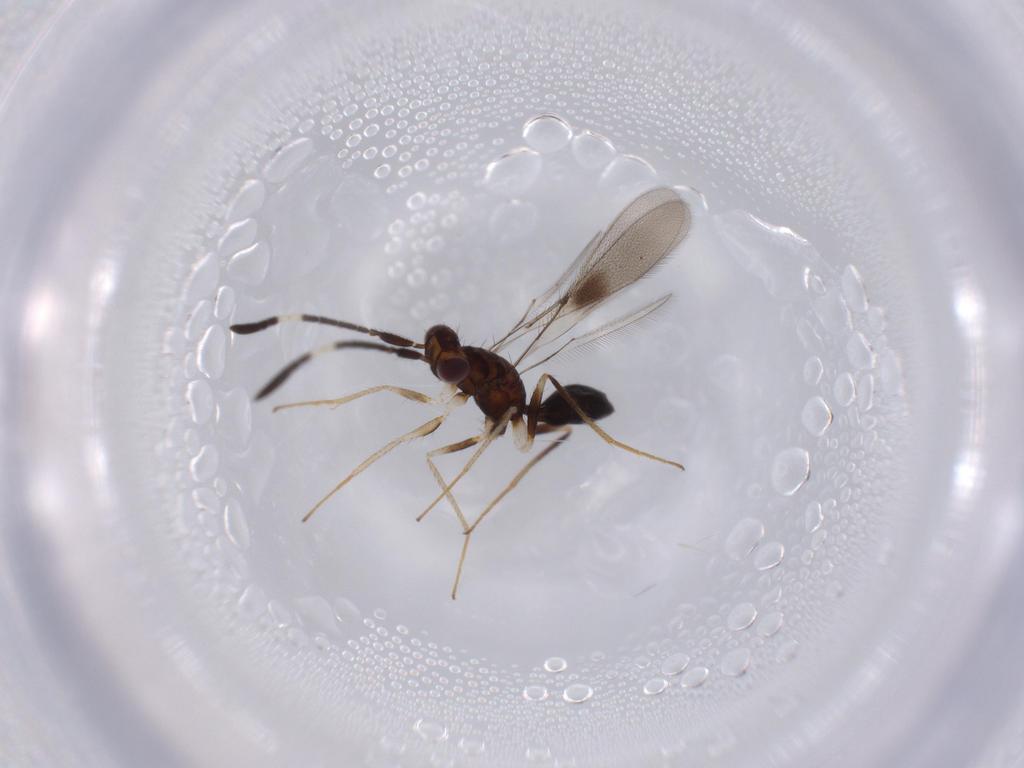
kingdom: Animalia
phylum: Arthropoda
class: Insecta
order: Hymenoptera
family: Mymaridae
